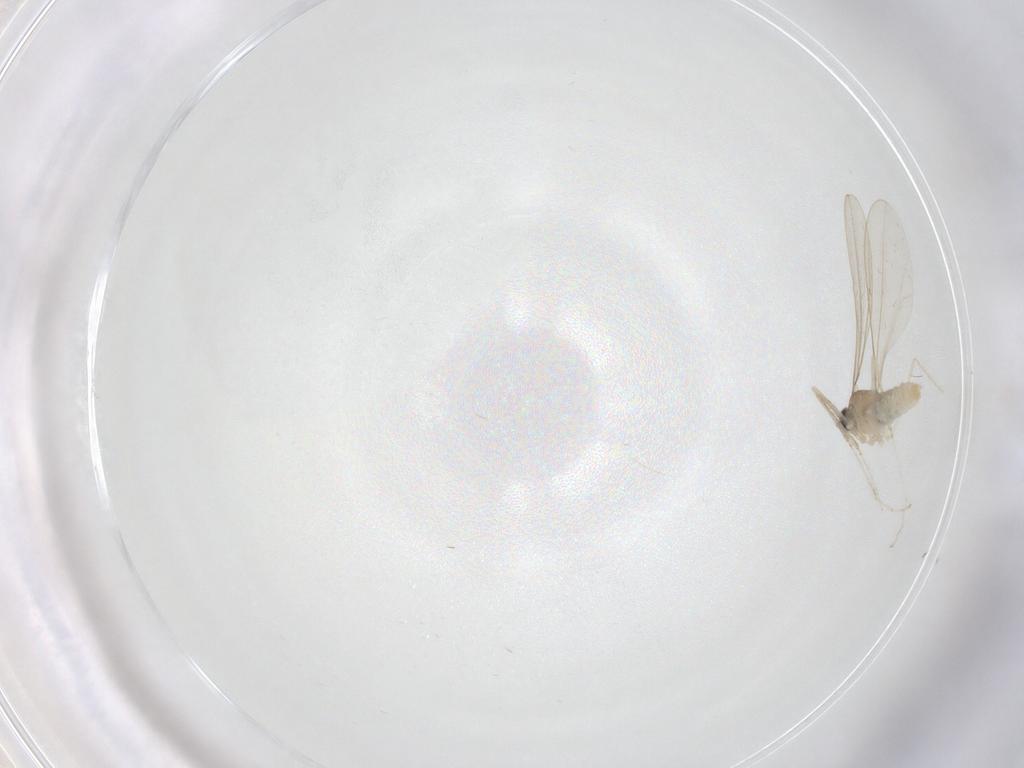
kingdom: Animalia
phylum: Arthropoda
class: Insecta
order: Diptera
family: Cecidomyiidae
